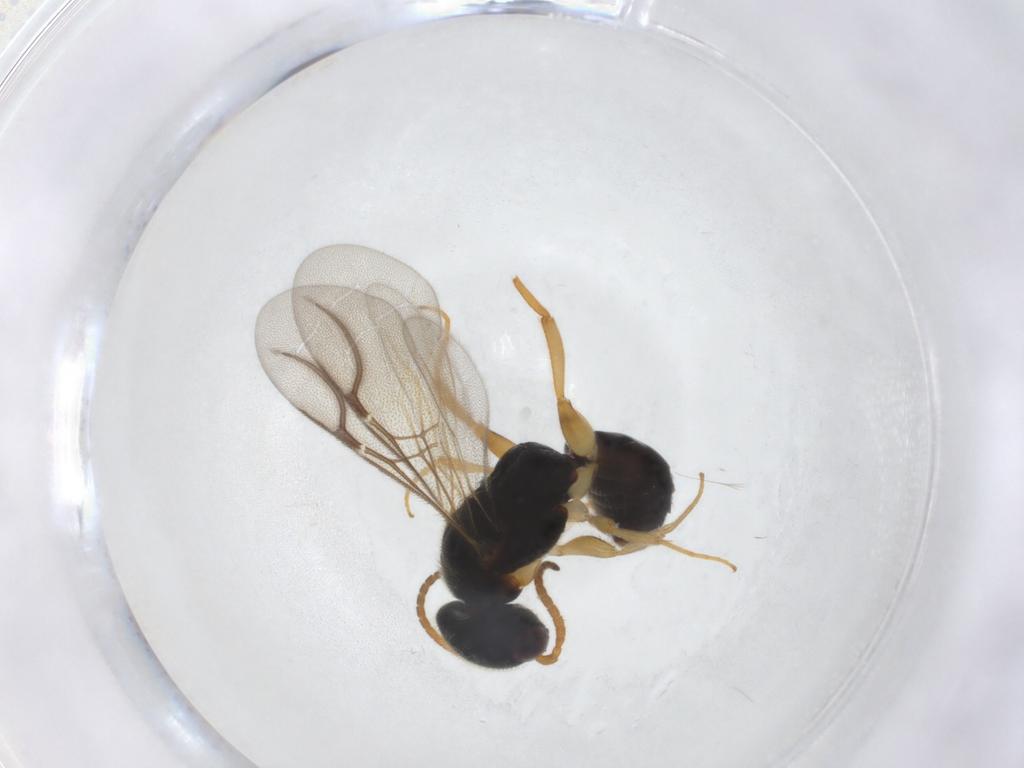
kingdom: Animalia
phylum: Arthropoda
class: Insecta
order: Hymenoptera
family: Bethylidae
